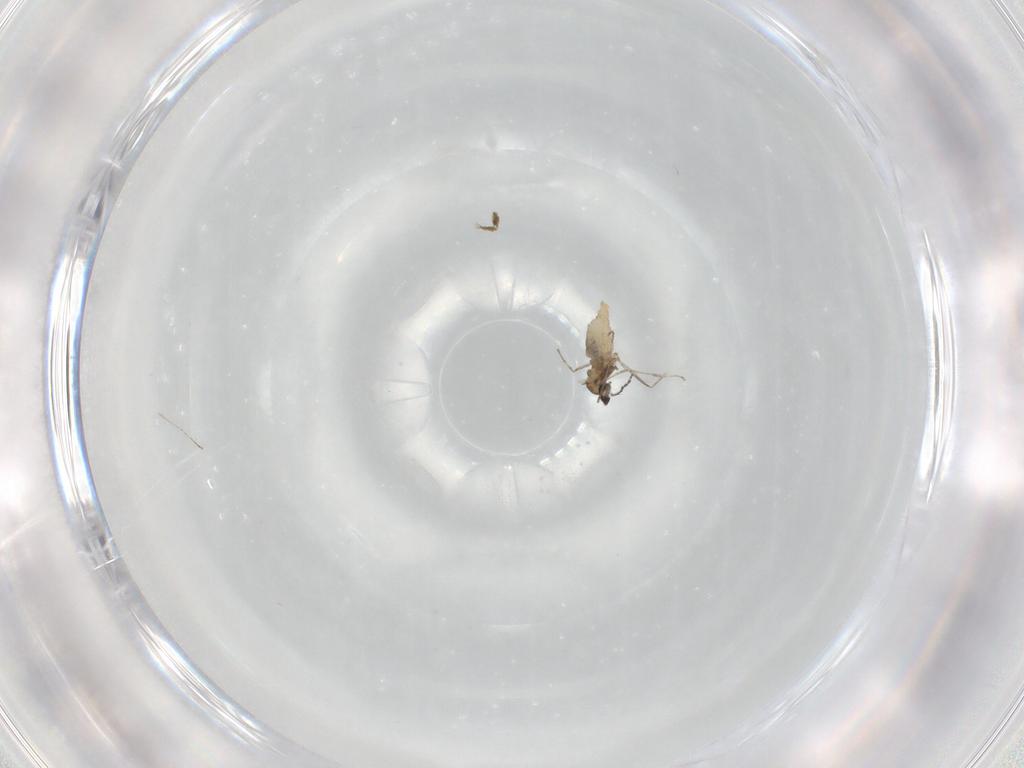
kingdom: Animalia
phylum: Arthropoda
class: Insecta
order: Diptera
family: Cecidomyiidae
